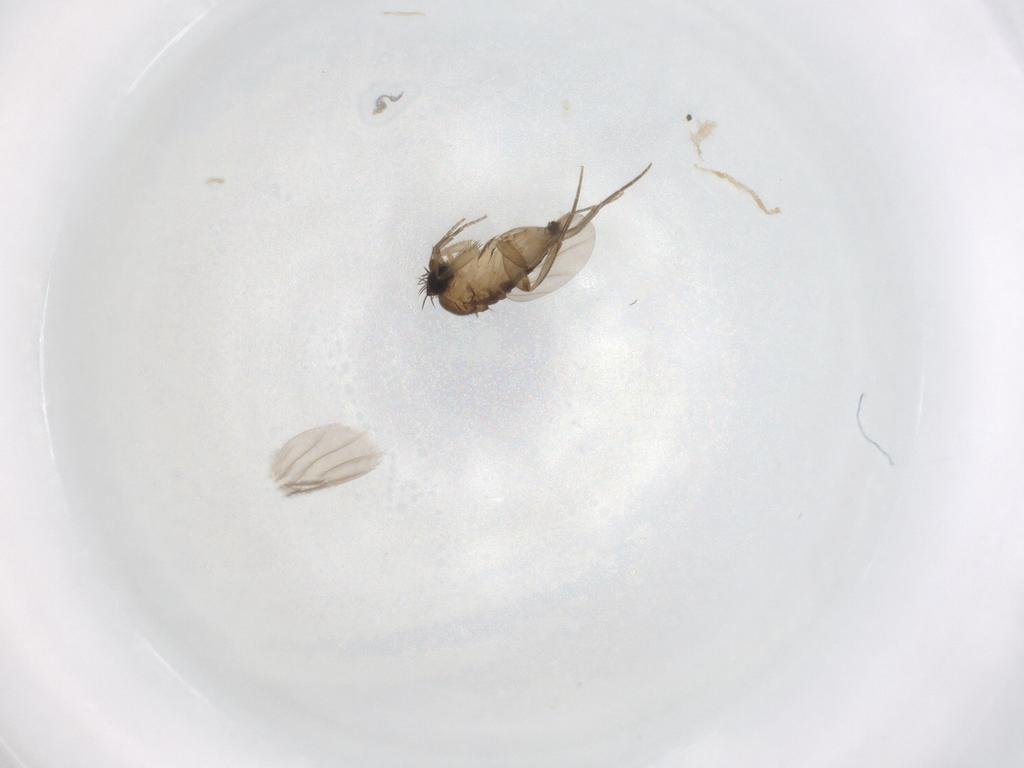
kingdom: Animalia
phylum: Arthropoda
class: Insecta
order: Diptera
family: Phoridae
